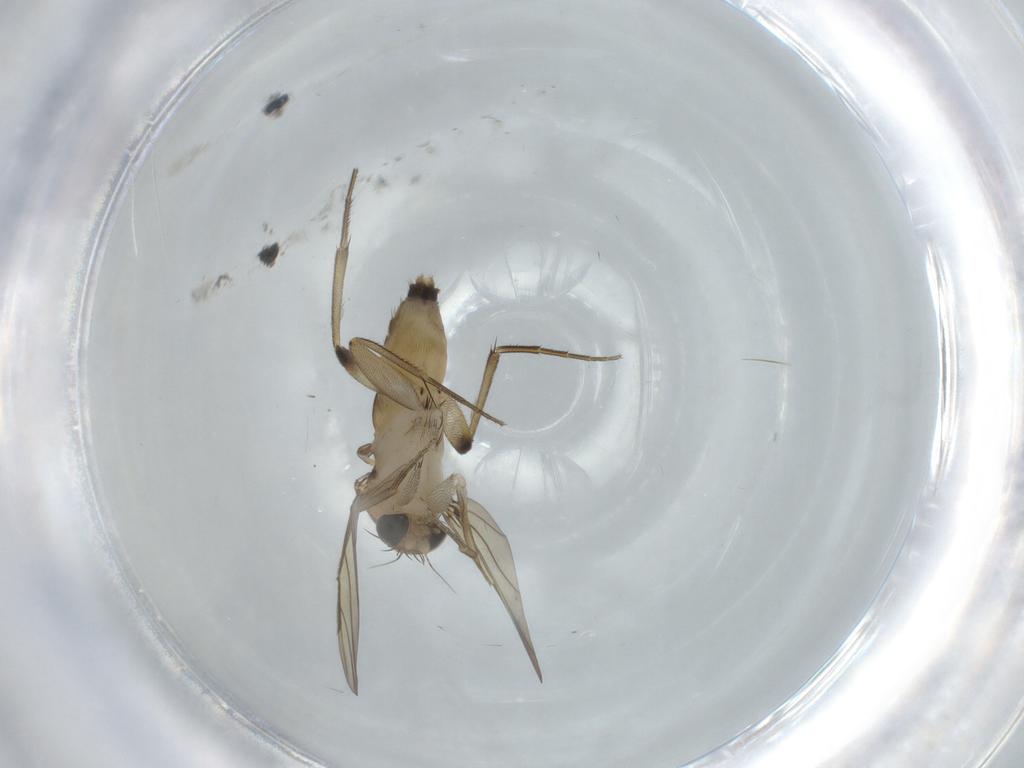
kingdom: Animalia
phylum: Arthropoda
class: Insecta
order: Diptera
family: Phoridae
